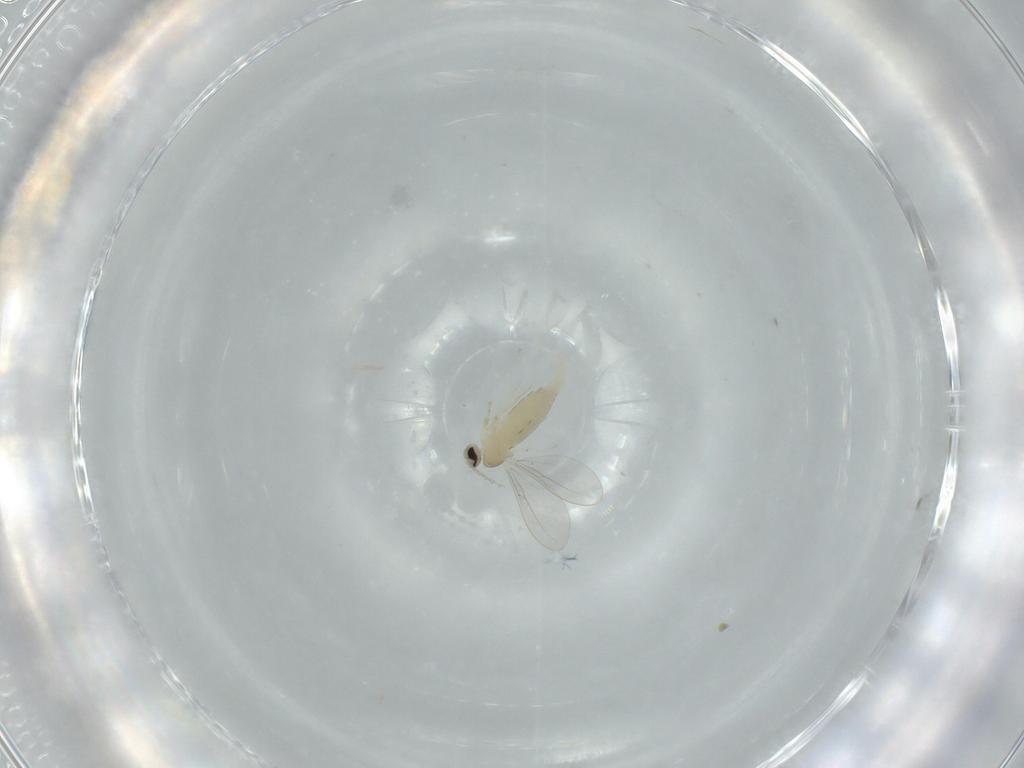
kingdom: Animalia
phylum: Arthropoda
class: Insecta
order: Diptera
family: Cecidomyiidae
